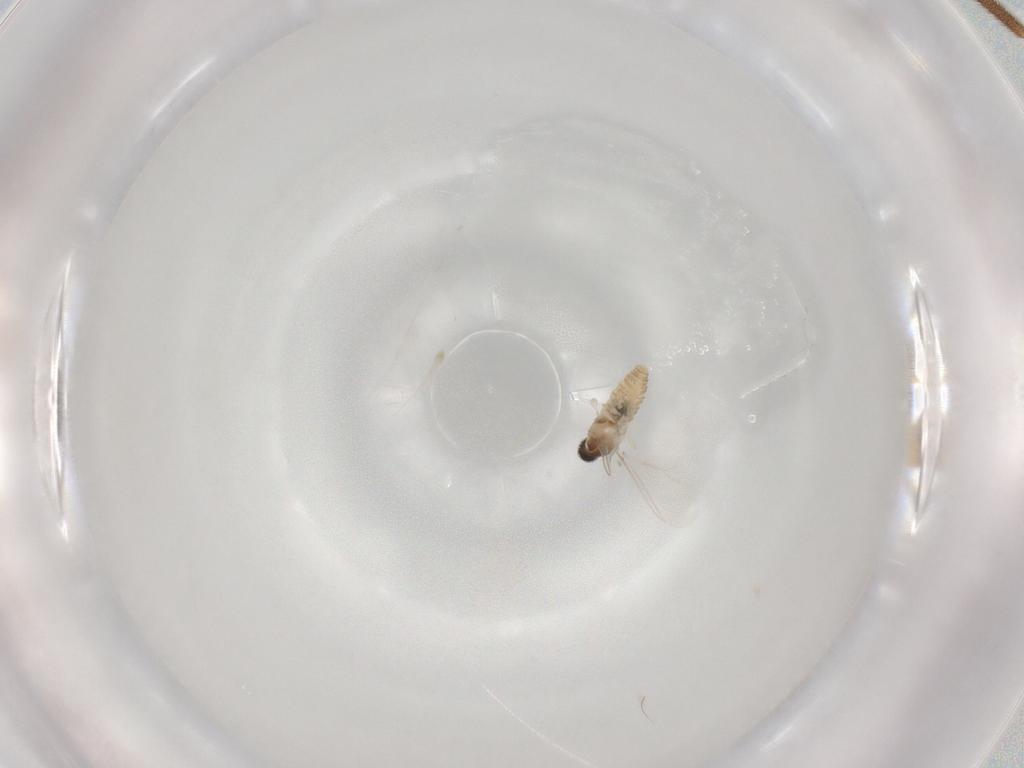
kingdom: Animalia
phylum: Arthropoda
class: Insecta
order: Diptera
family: Cecidomyiidae
